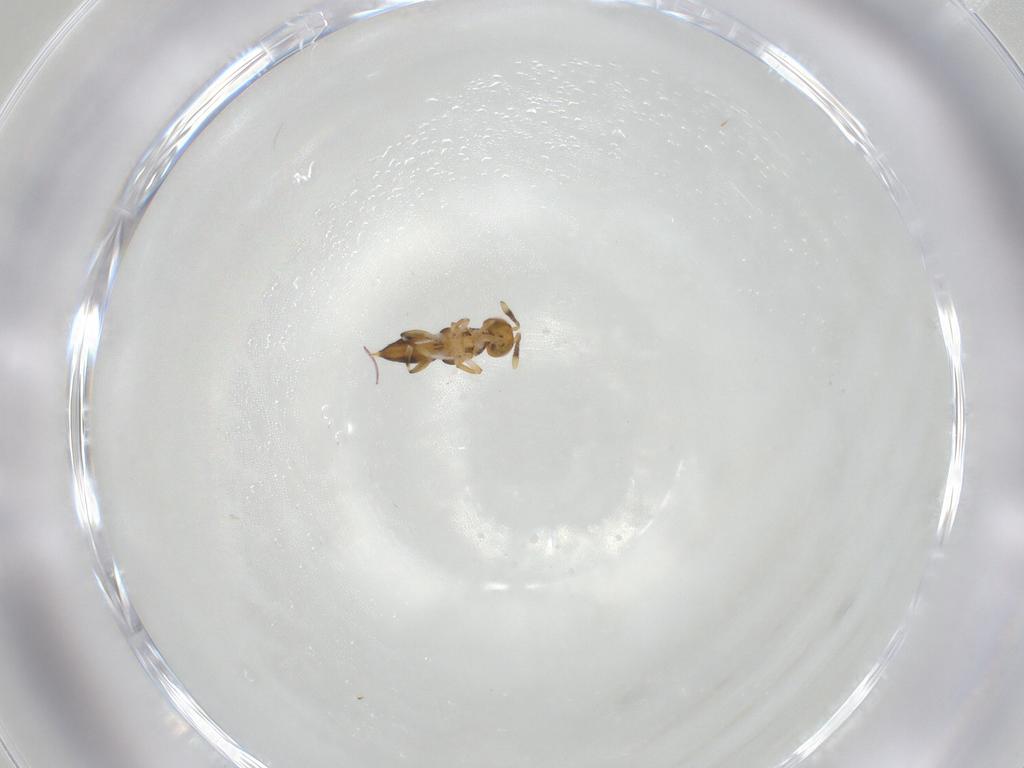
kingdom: Animalia
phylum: Arthropoda
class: Insecta
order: Hymenoptera
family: Encyrtidae
